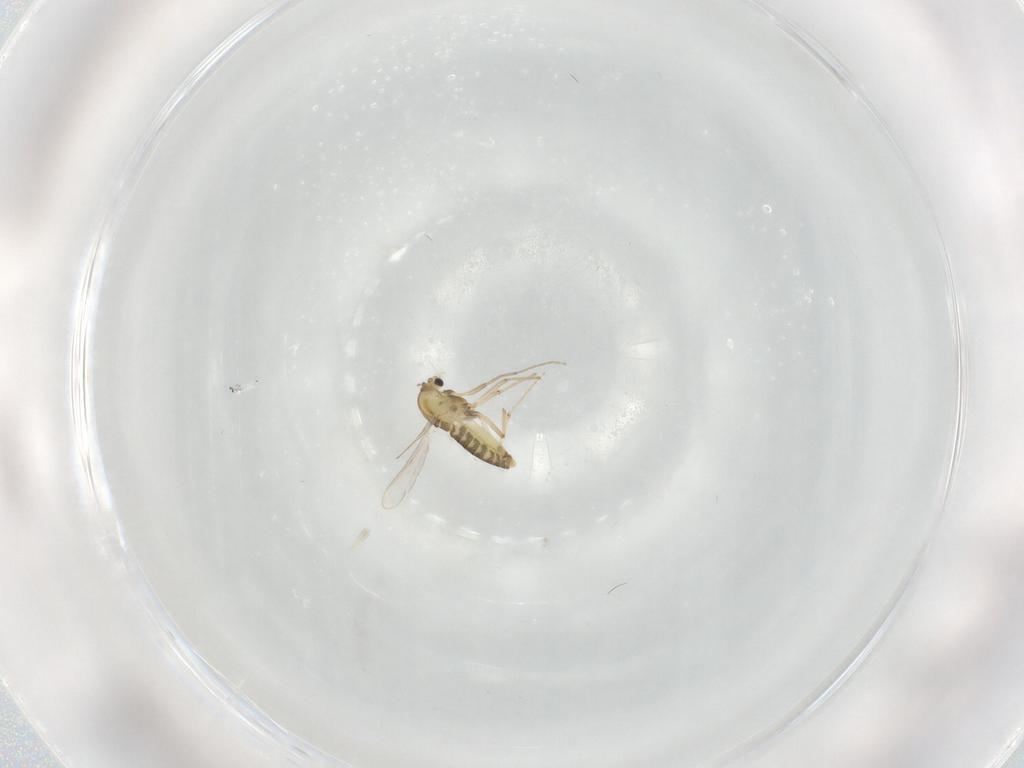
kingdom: Animalia
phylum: Arthropoda
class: Insecta
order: Diptera
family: Chironomidae
